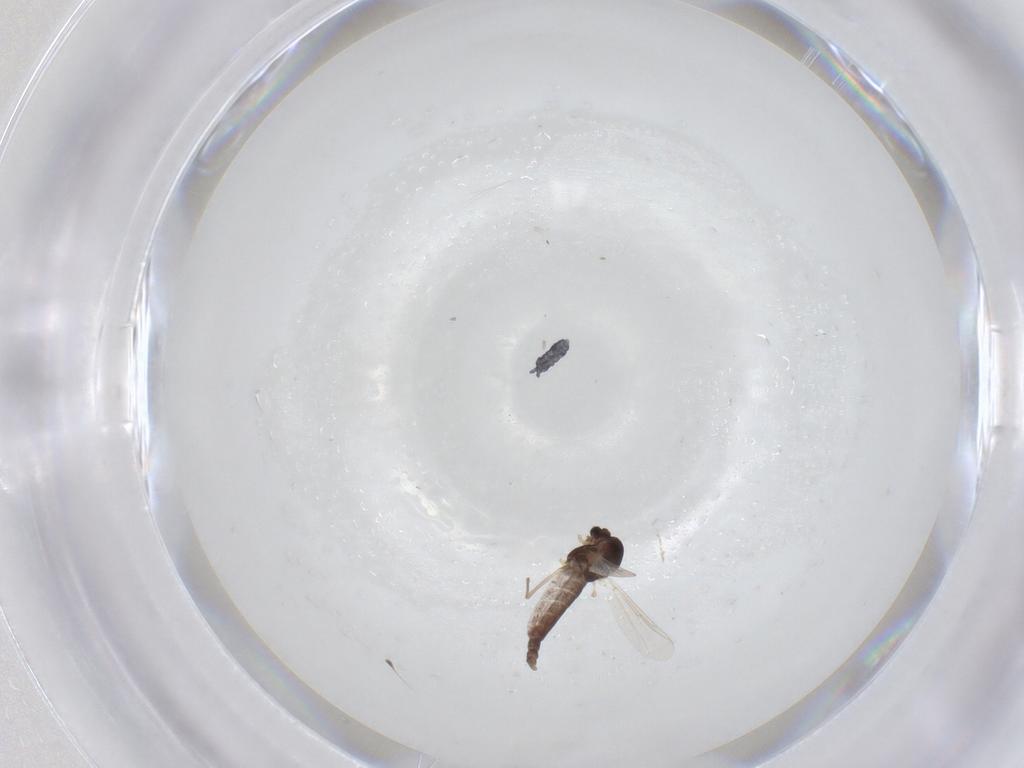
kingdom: Animalia
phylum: Arthropoda
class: Insecta
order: Diptera
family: Chironomidae
